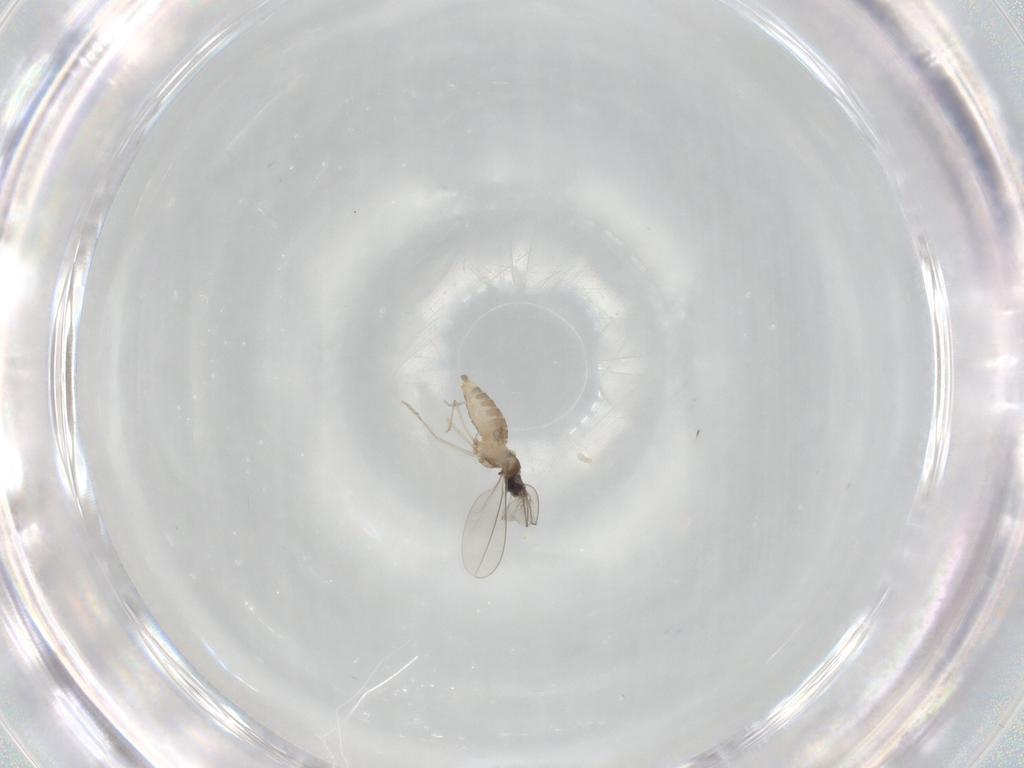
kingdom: Animalia
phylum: Arthropoda
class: Insecta
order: Diptera
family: Cecidomyiidae
